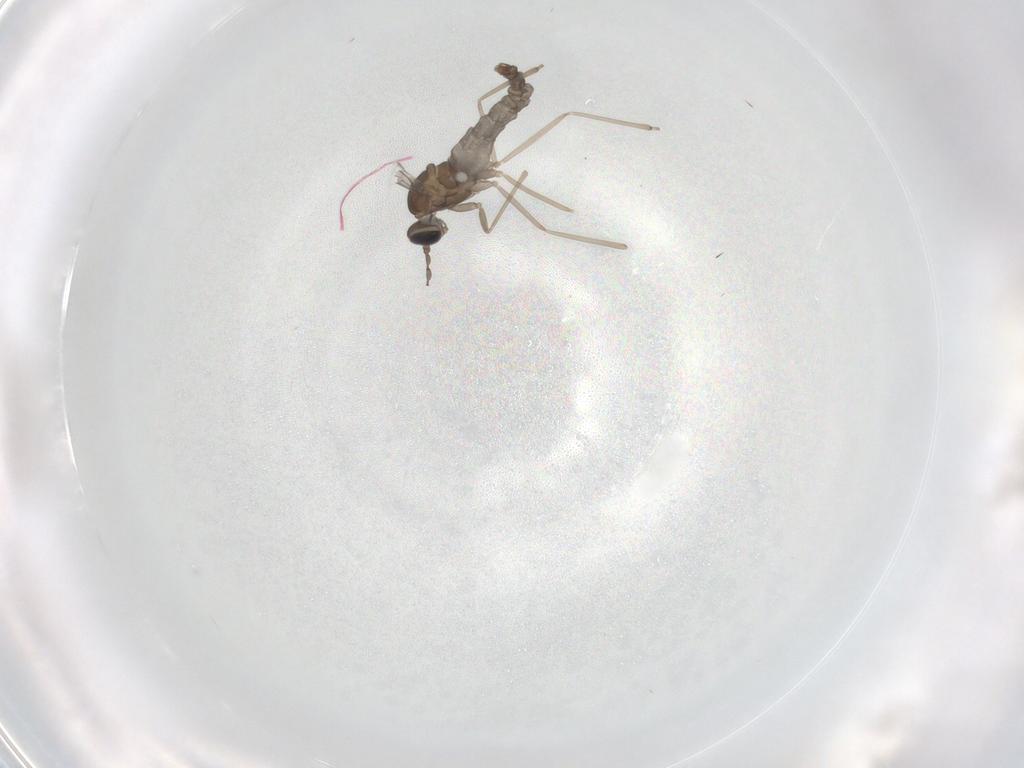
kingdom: Animalia
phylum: Arthropoda
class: Insecta
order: Diptera
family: Cecidomyiidae
